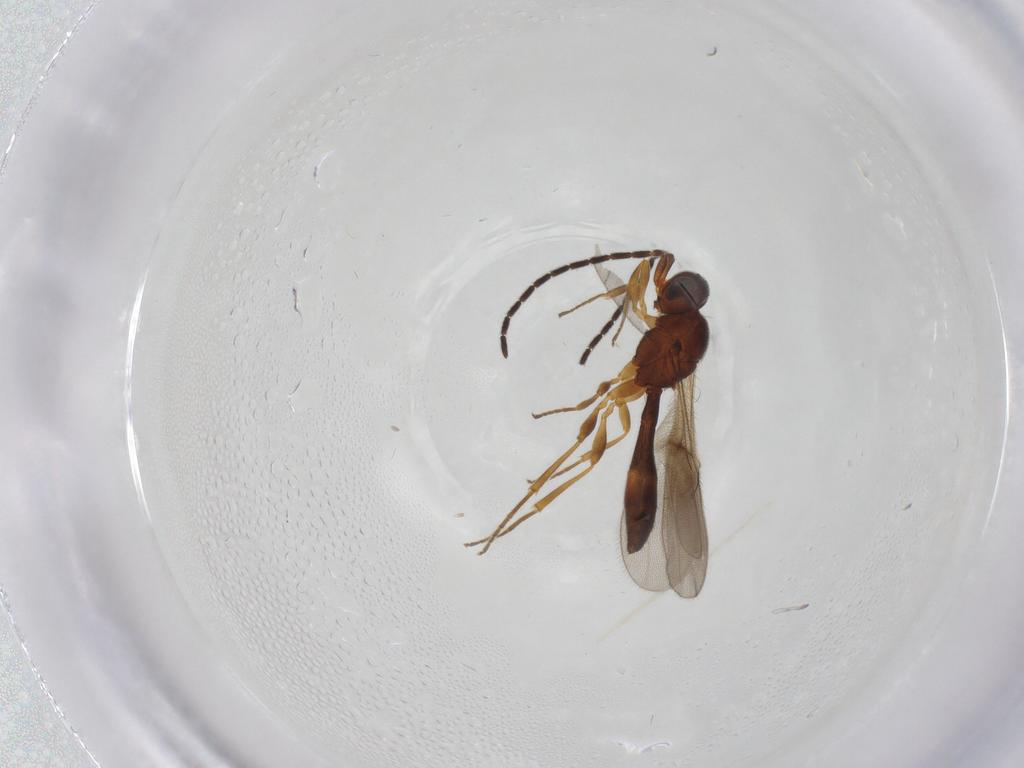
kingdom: Animalia
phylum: Arthropoda
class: Insecta
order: Hymenoptera
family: Scelionidae
